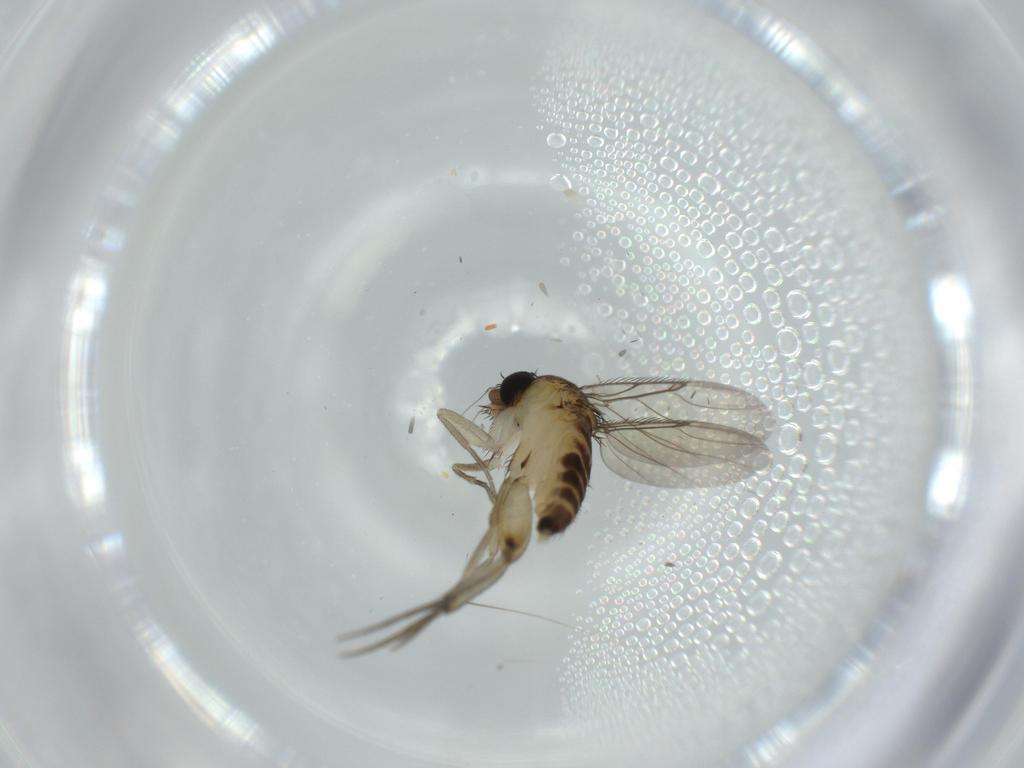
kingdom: Animalia
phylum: Arthropoda
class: Insecta
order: Diptera
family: Phoridae
